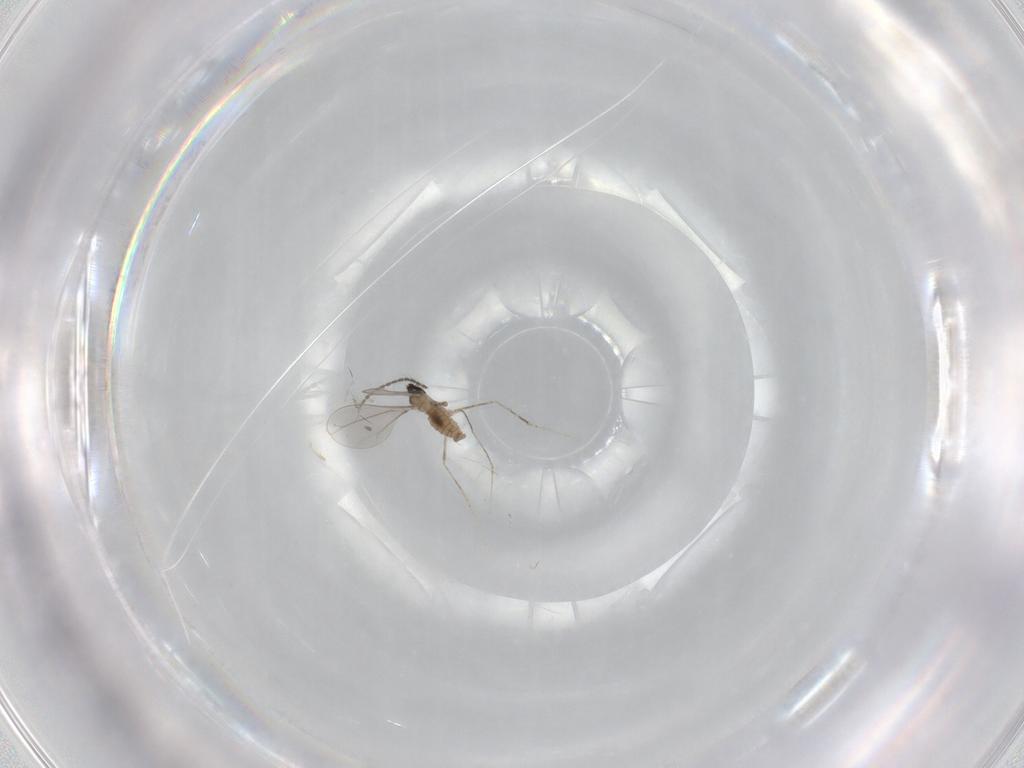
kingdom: Animalia
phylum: Arthropoda
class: Insecta
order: Diptera
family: Cecidomyiidae
